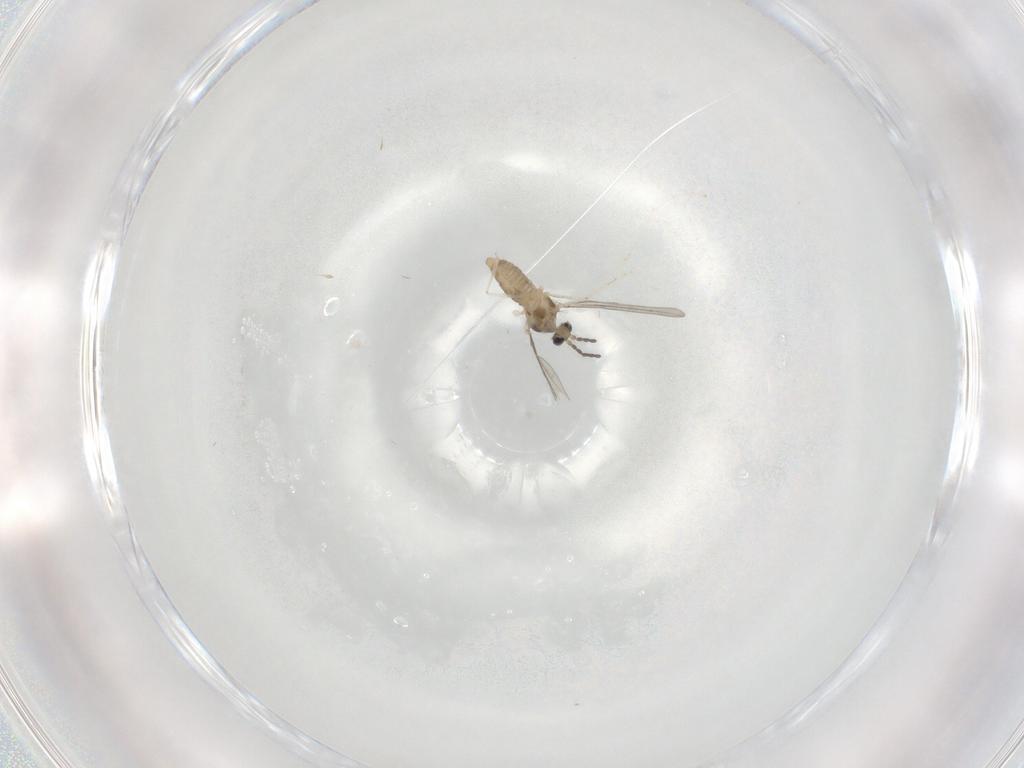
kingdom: Animalia
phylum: Arthropoda
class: Insecta
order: Diptera
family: Cecidomyiidae
